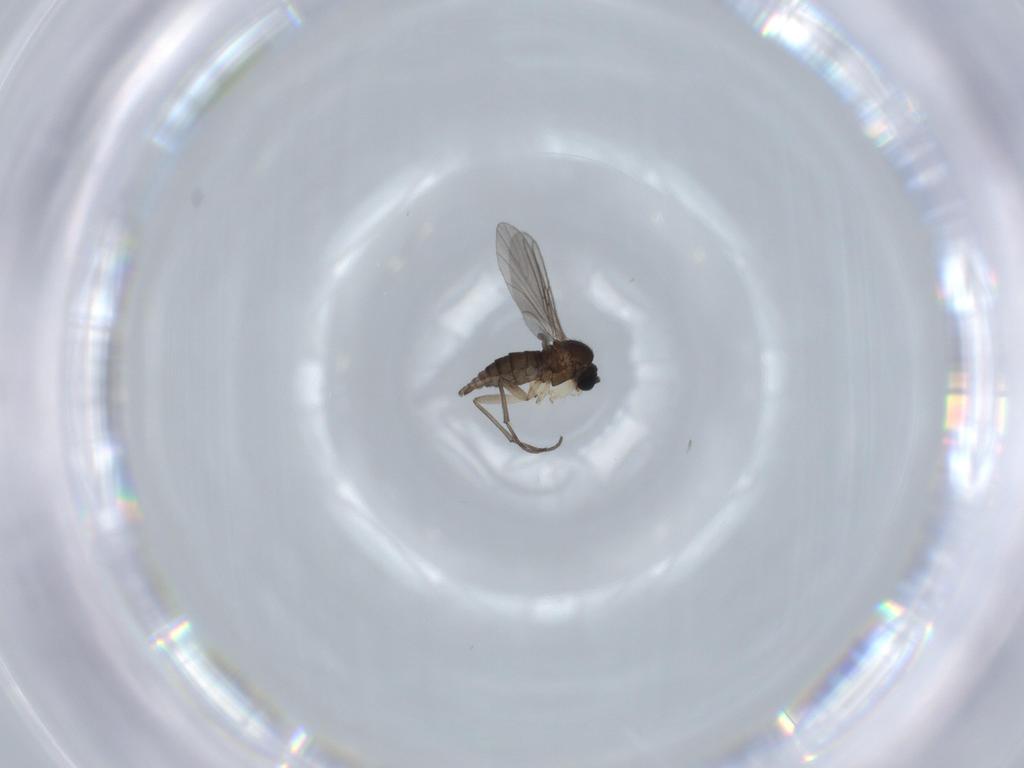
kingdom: Animalia
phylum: Arthropoda
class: Insecta
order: Diptera
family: Sciaridae
